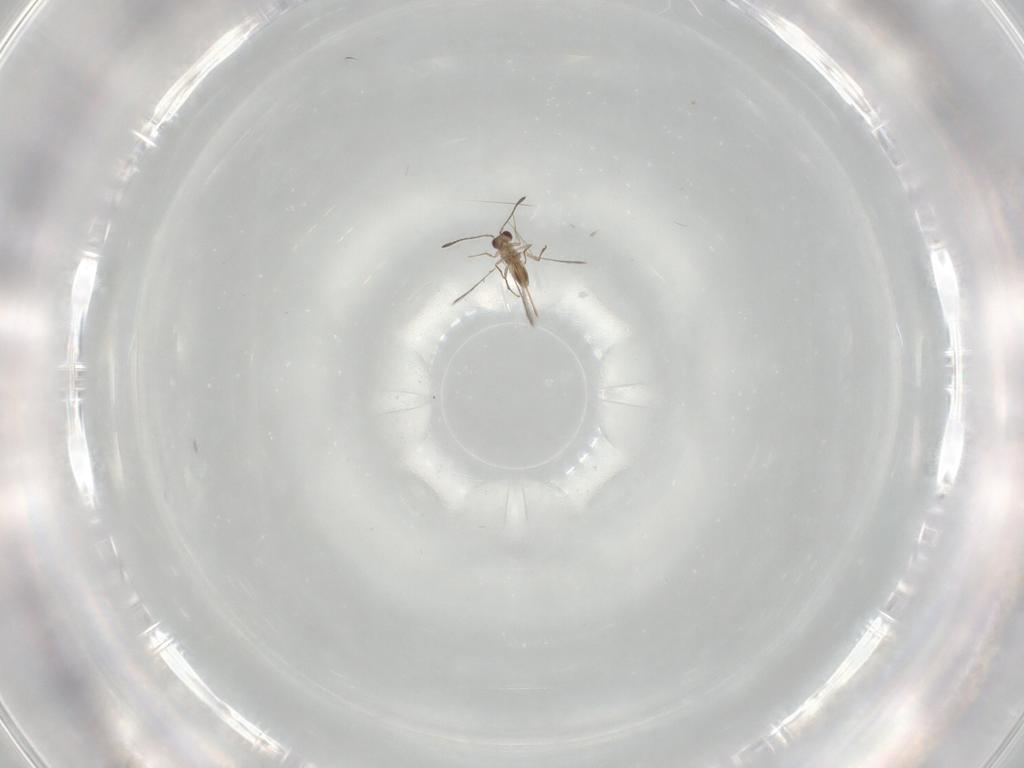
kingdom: Animalia
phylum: Arthropoda
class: Insecta
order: Hymenoptera
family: Mymaridae
